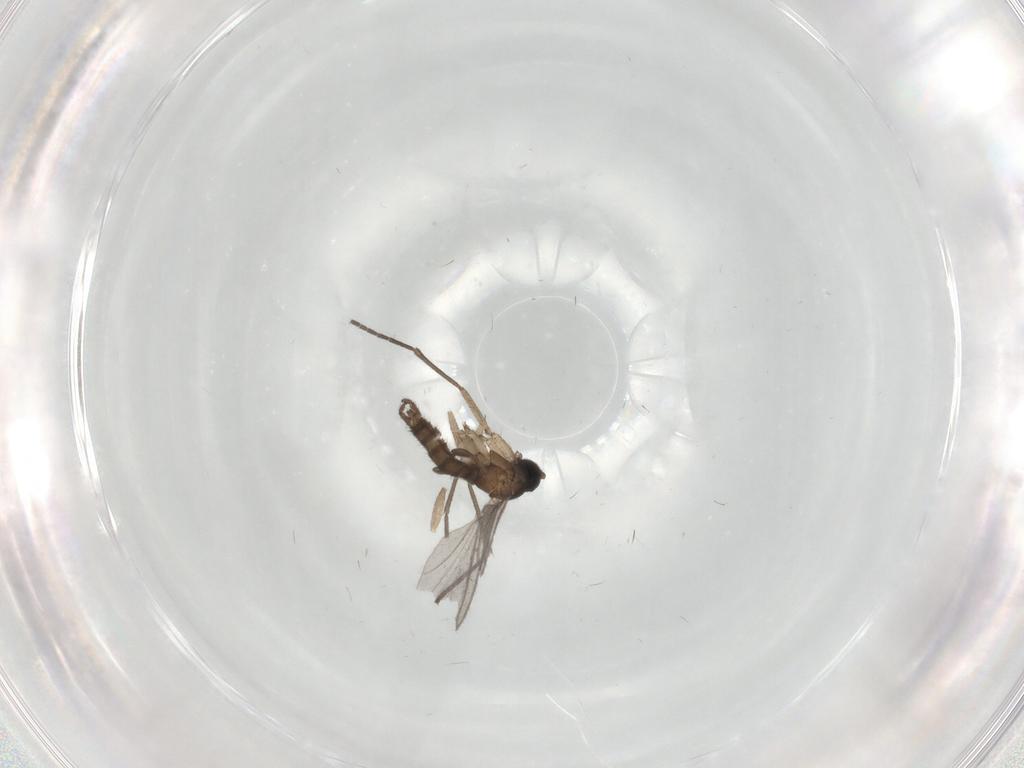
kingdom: Animalia
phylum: Arthropoda
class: Insecta
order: Diptera
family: Sciaridae
